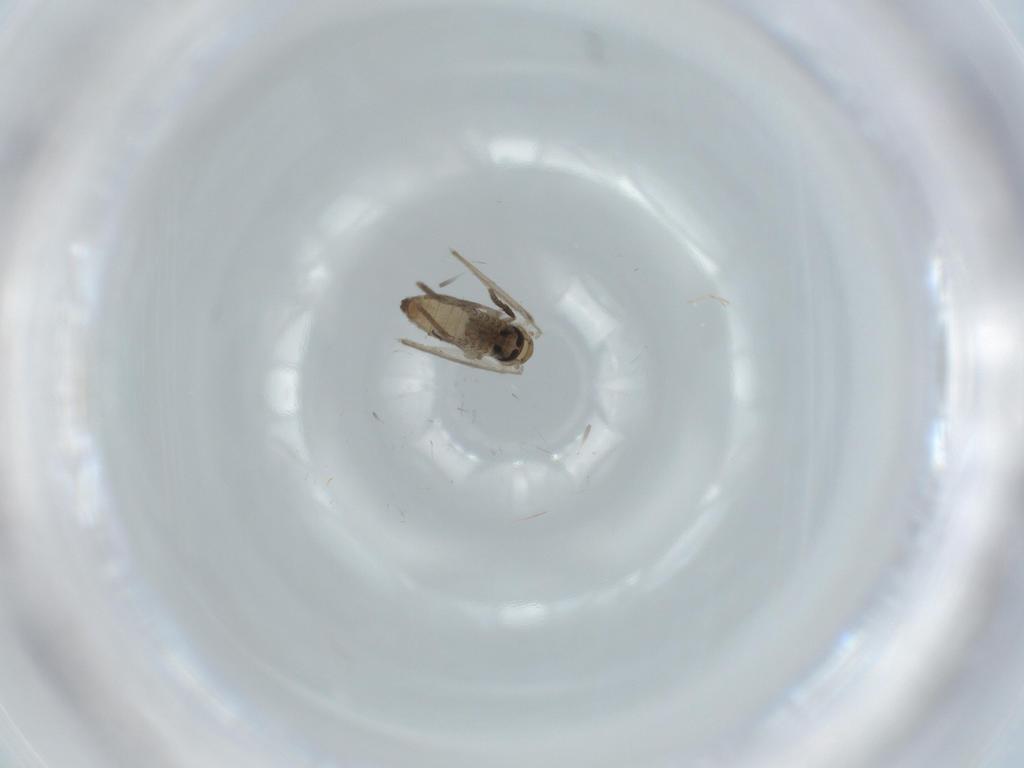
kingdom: Animalia
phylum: Arthropoda
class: Insecta
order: Diptera
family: Psychodidae
